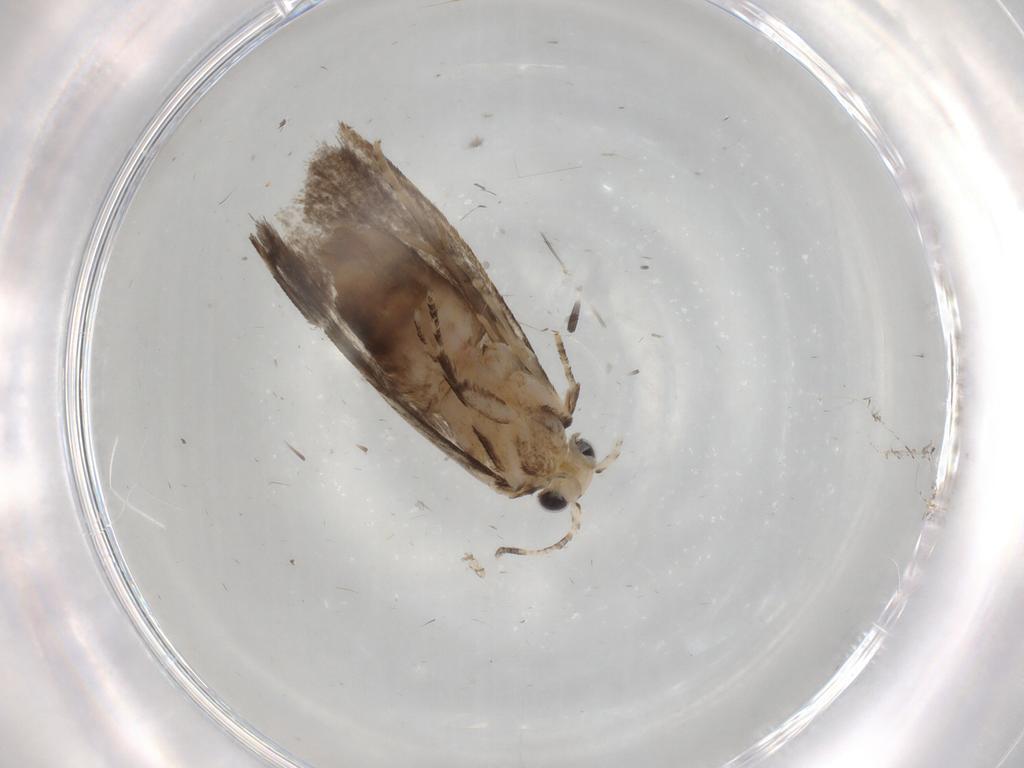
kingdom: Animalia
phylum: Arthropoda
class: Insecta
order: Lepidoptera
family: Tineidae
